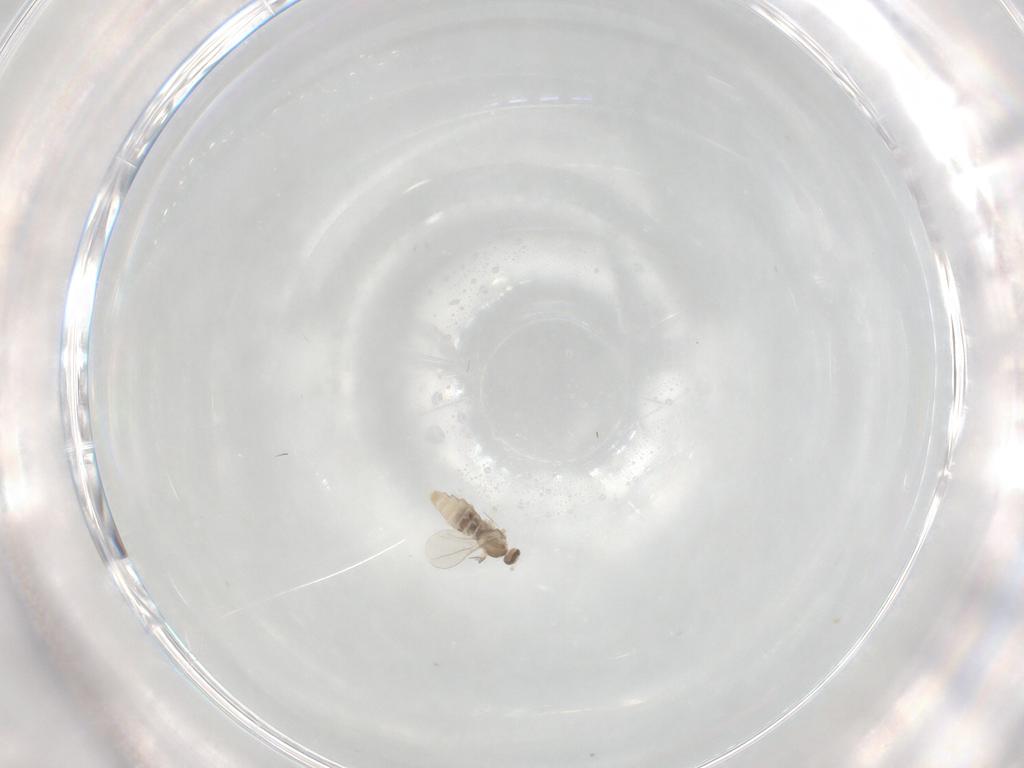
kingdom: Animalia
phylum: Arthropoda
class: Insecta
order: Diptera
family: Cecidomyiidae
